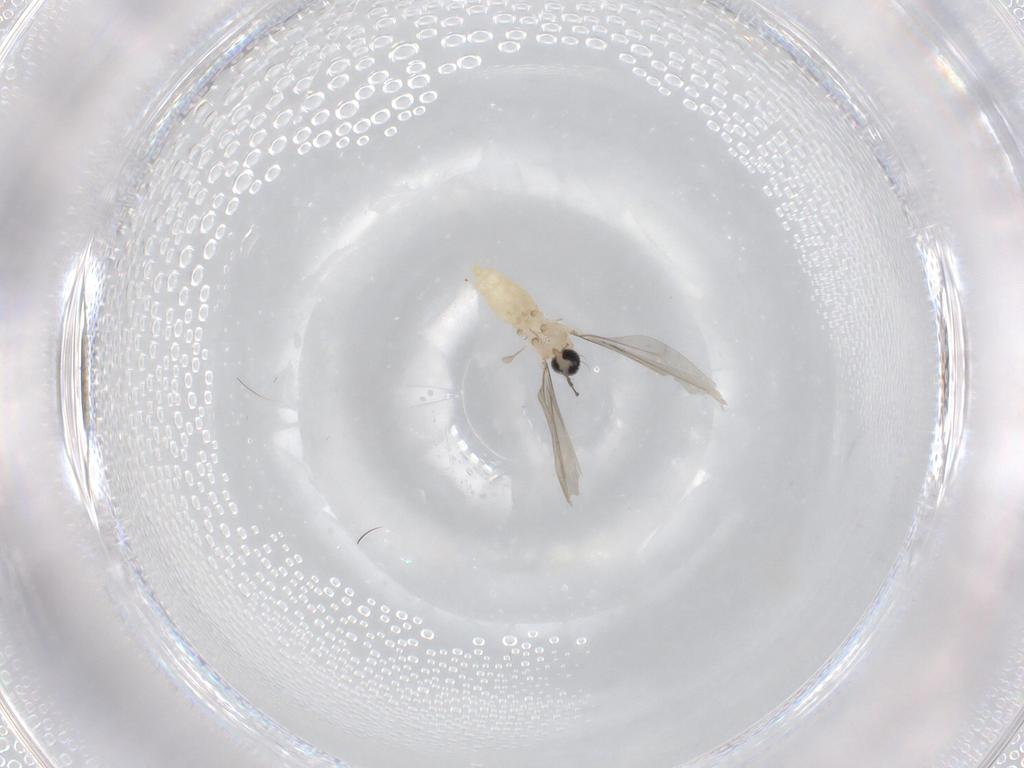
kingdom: Animalia
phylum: Arthropoda
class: Insecta
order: Diptera
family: Cecidomyiidae
